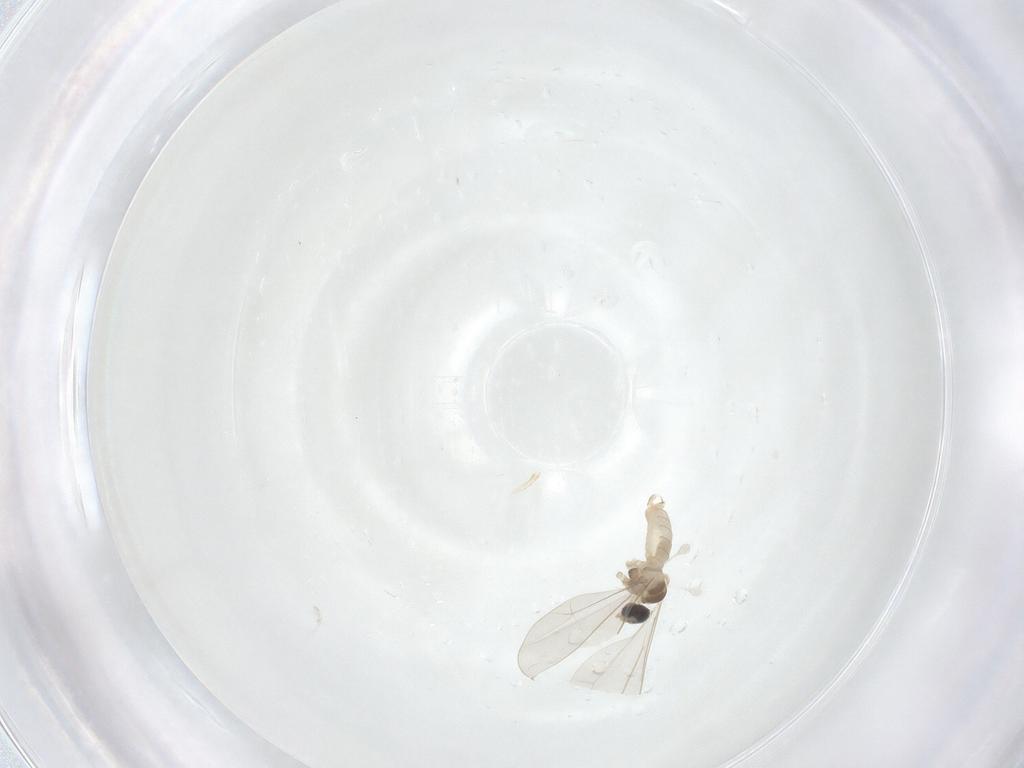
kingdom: Animalia
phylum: Arthropoda
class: Insecta
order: Diptera
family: Cecidomyiidae
